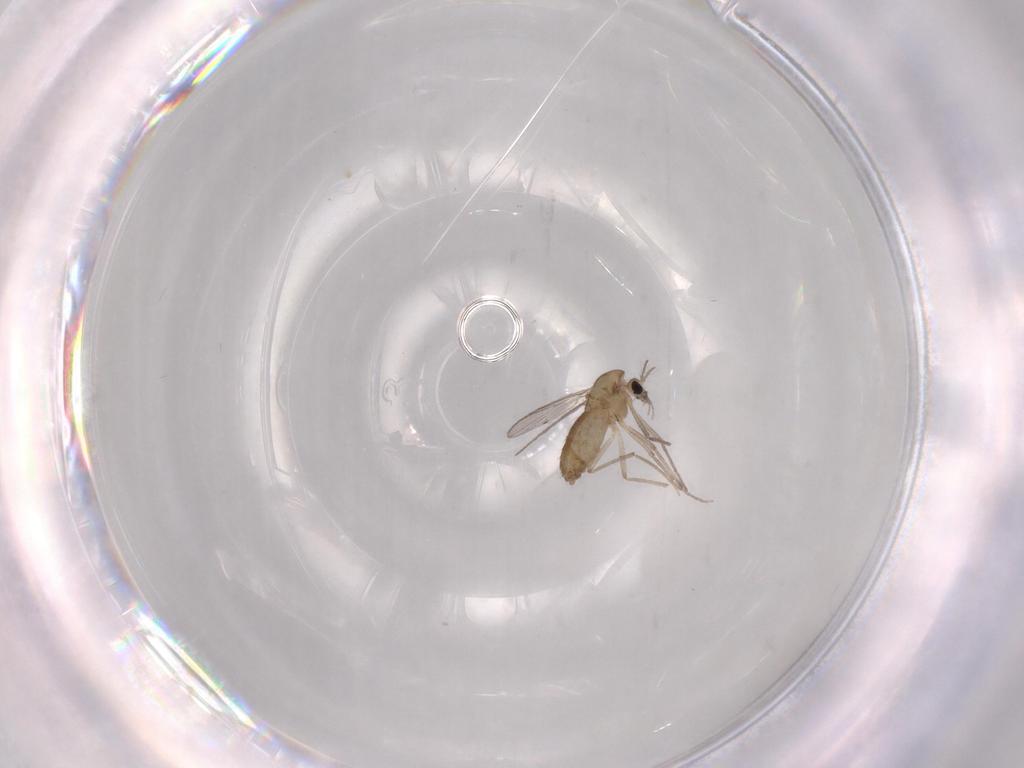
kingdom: Animalia
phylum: Arthropoda
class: Insecta
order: Diptera
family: Chironomidae
